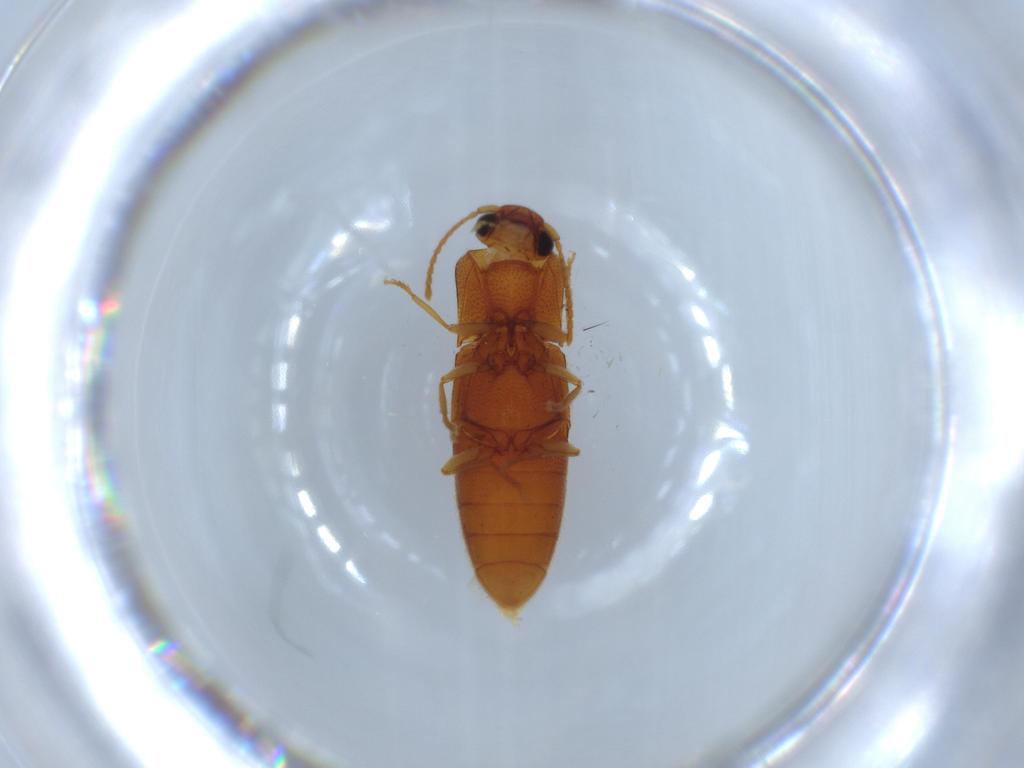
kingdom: Animalia
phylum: Arthropoda
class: Insecta
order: Coleoptera
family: Elateridae
